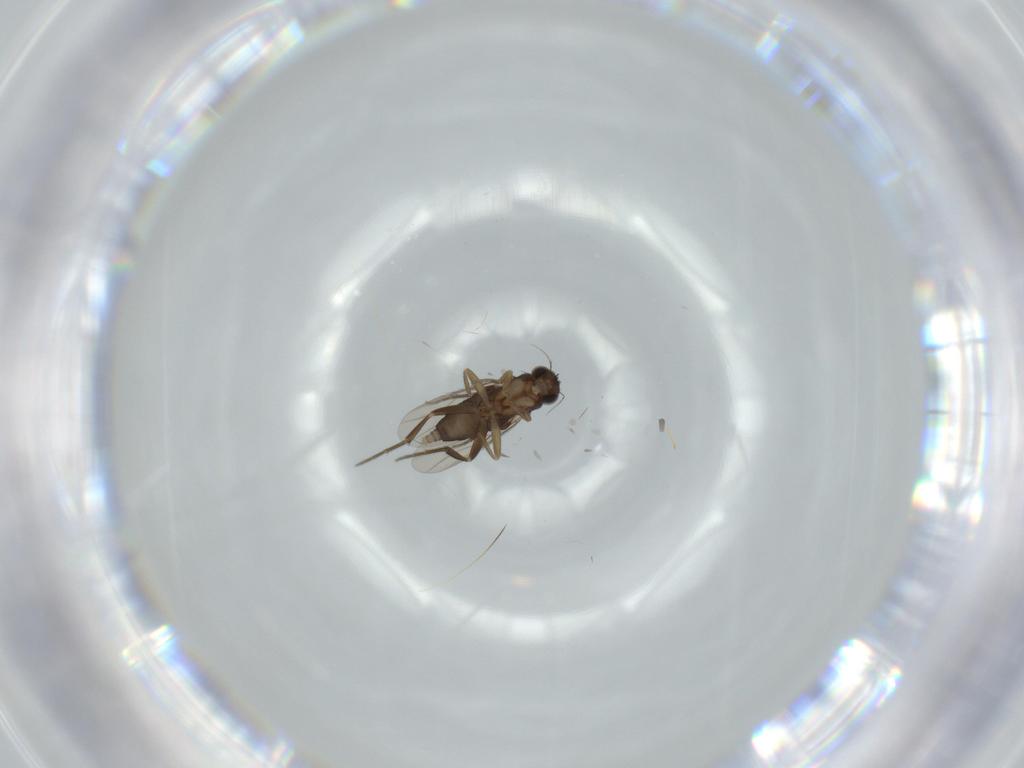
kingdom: Animalia
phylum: Arthropoda
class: Insecta
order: Diptera
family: Phoridae
